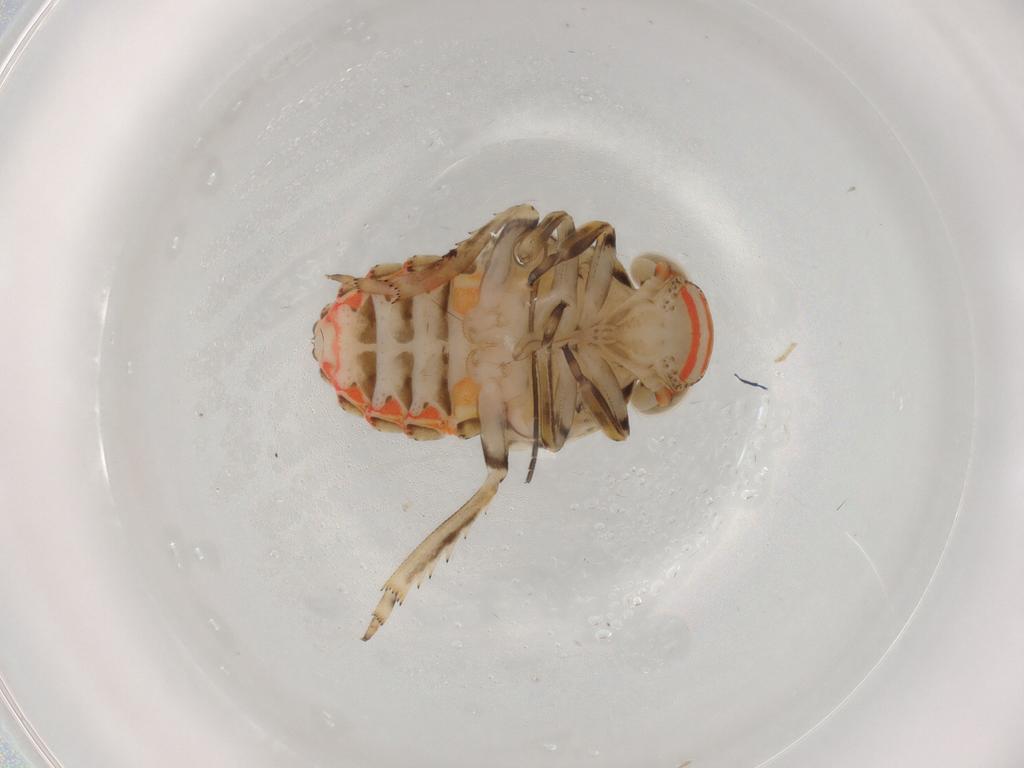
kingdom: Animalia
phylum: Arthropoda
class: Insecta
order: Hemiptera
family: Issidae
